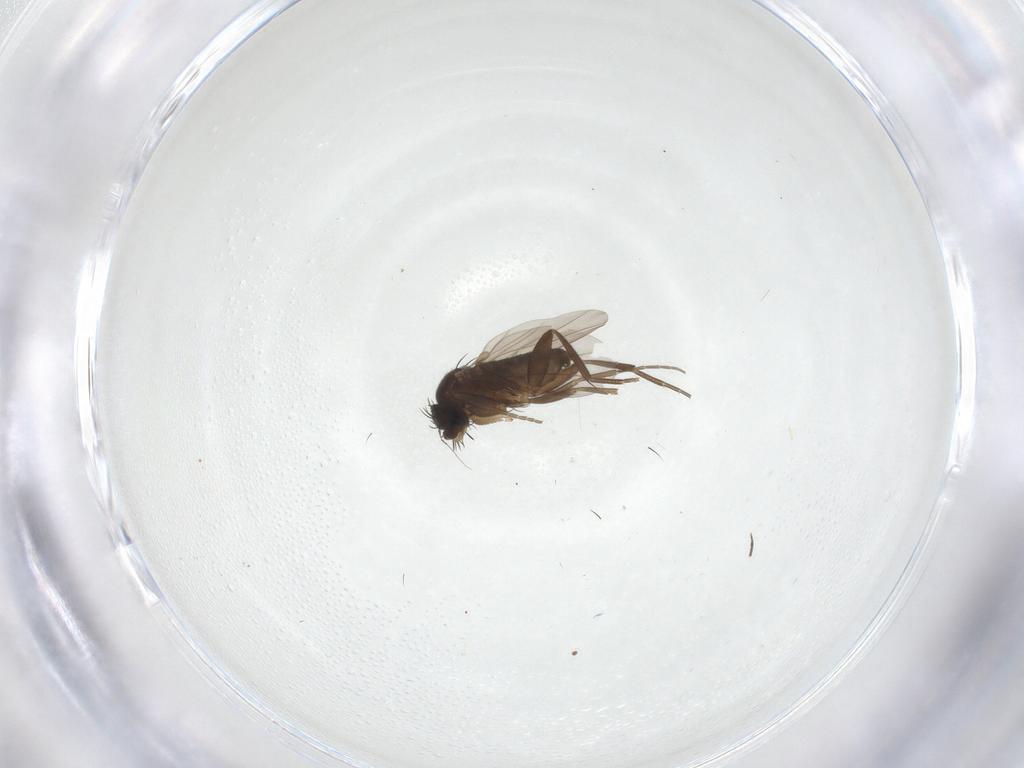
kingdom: Animalia
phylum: Arthropoda
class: Insecta
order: Diptera
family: Phoridae
